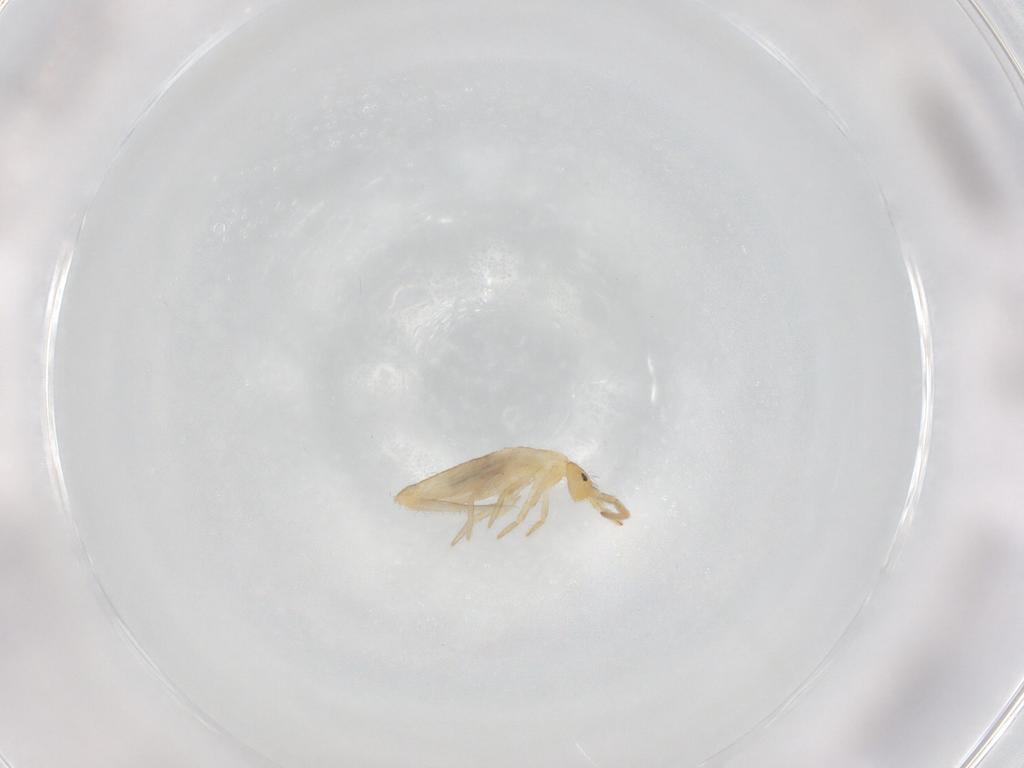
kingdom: Animalia
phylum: Arthropoda
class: Collembola
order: Entomobryomorpha
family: Entomobryidae
